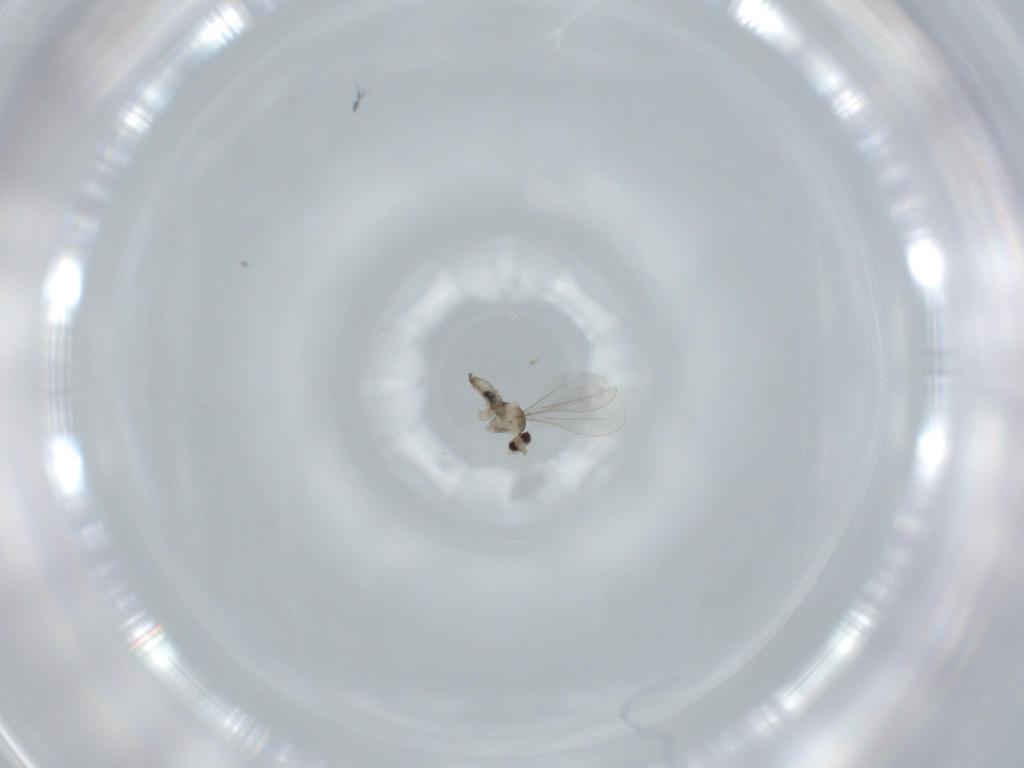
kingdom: Animalia
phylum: Arthropoda
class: Insecta
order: Diptera
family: Cecidomyiidae
